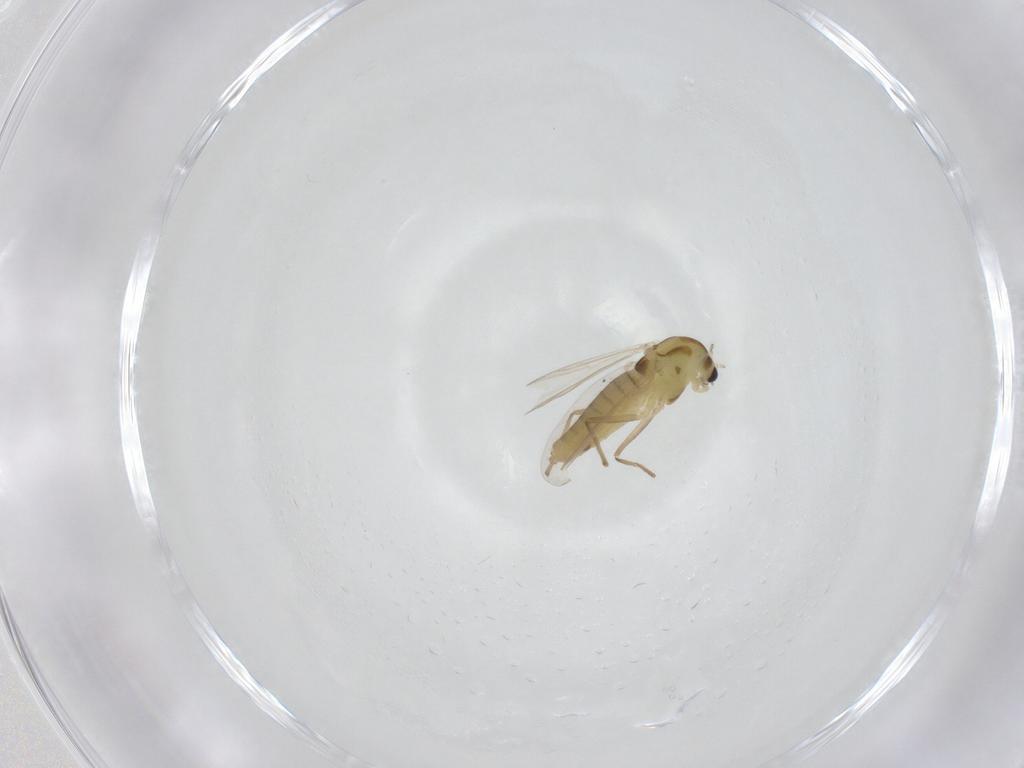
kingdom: Animalia
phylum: Arthropoda
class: Insecta
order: Diptera
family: Chironomidae
